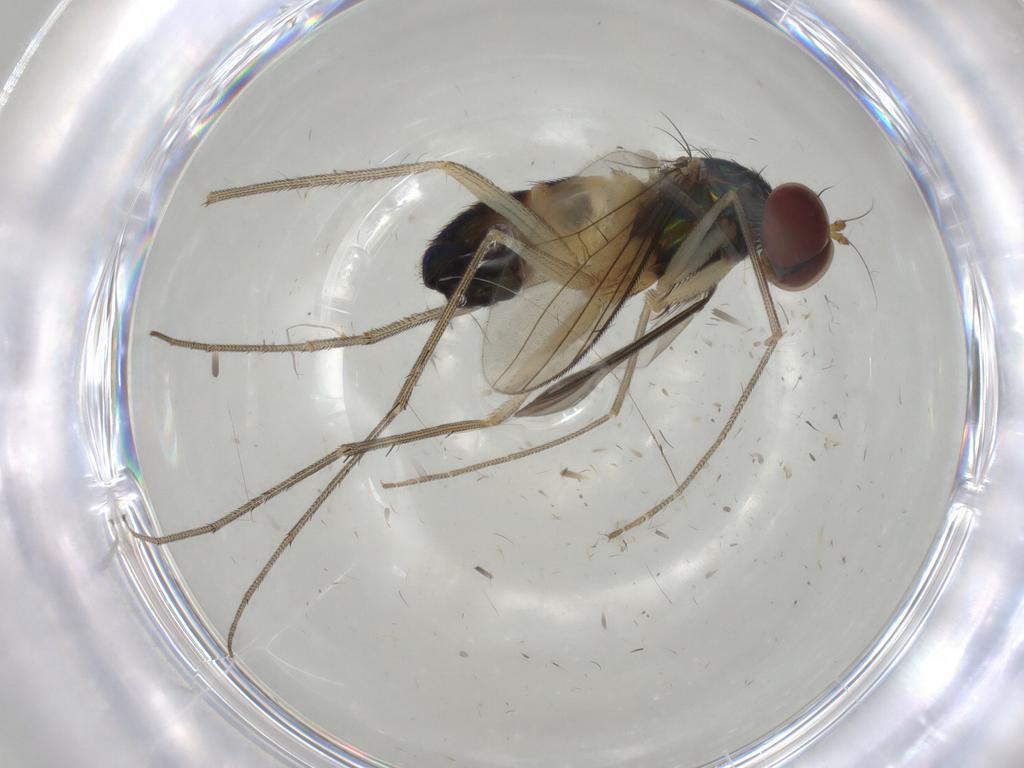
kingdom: Animalia
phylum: Arthropoda
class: Insecta
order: Diptera
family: Dolichopodidae
